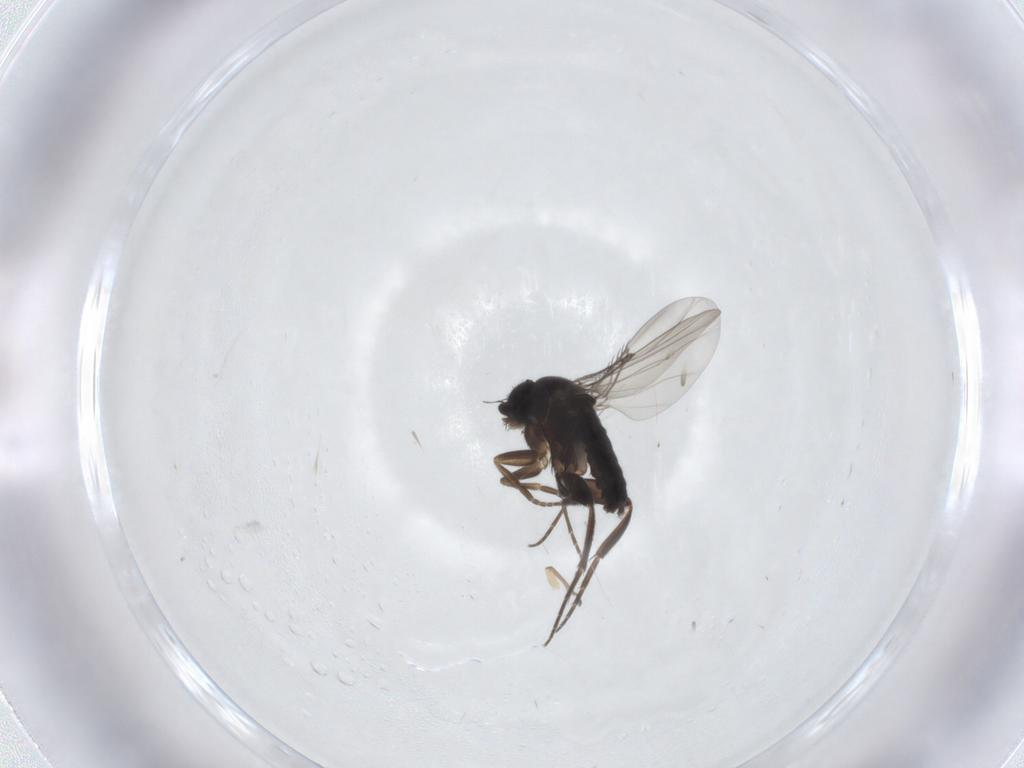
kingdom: Animalia
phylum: Arthropoda
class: Insecta
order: Diptera
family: Phoridae
